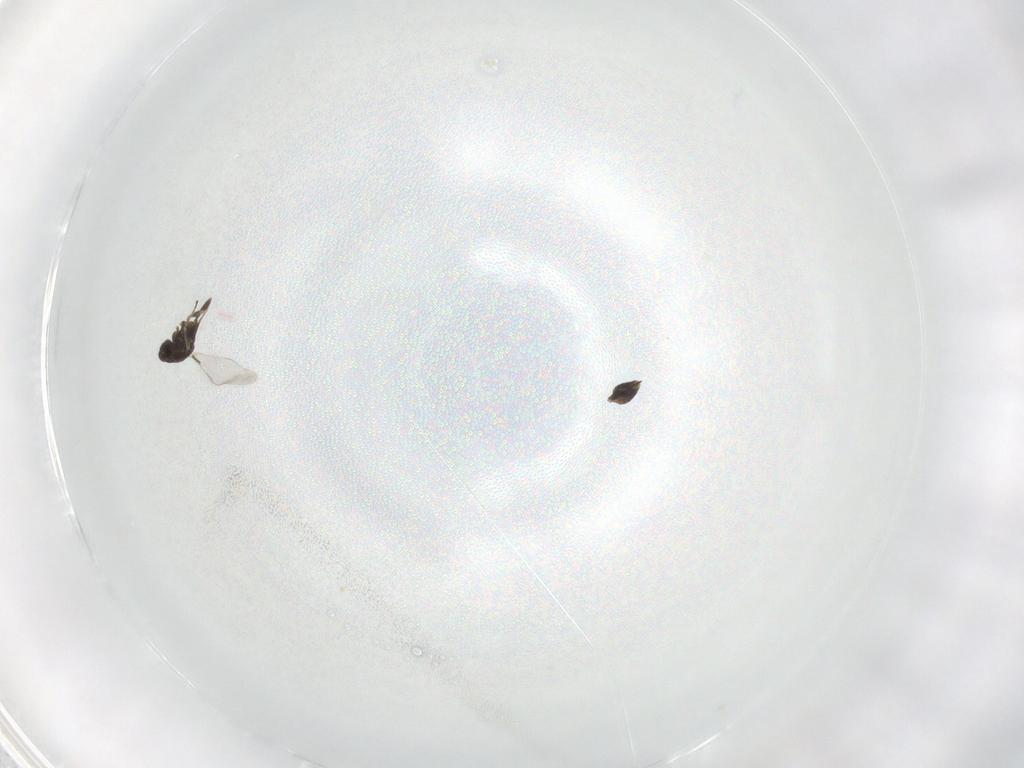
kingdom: Animalia
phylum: Arthropoda
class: Insecta
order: Hymenoptera
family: Mymaridae
